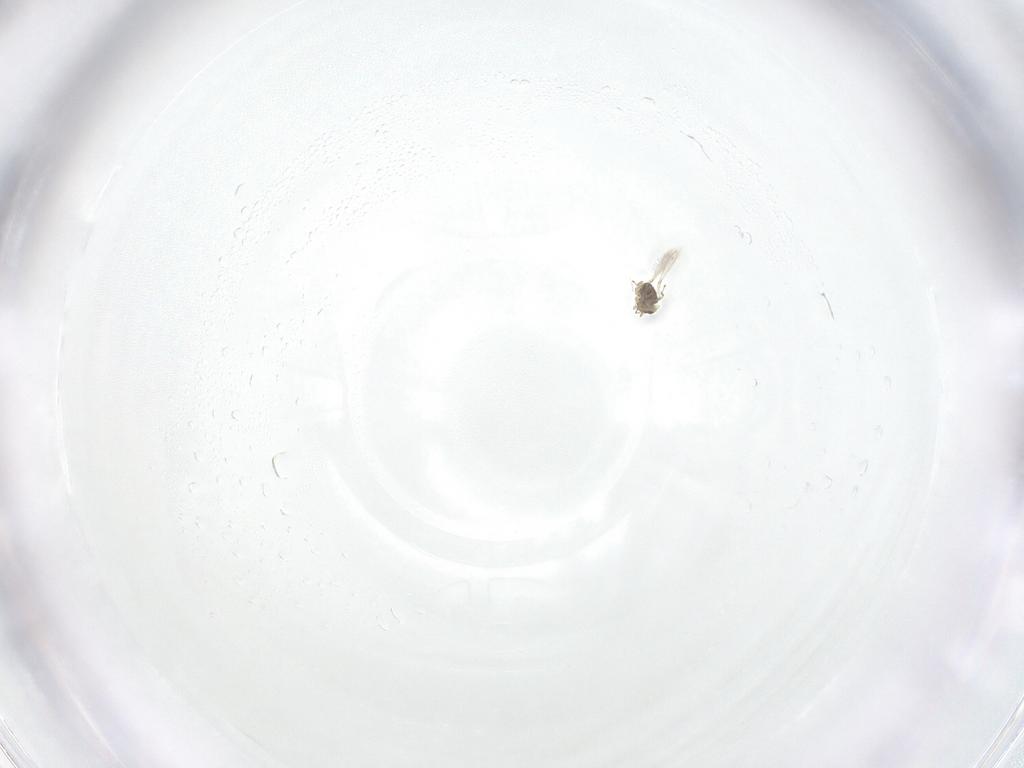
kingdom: Animalia
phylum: Arthropoda
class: Insecta
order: Hymenoptera
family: Mymaridae
